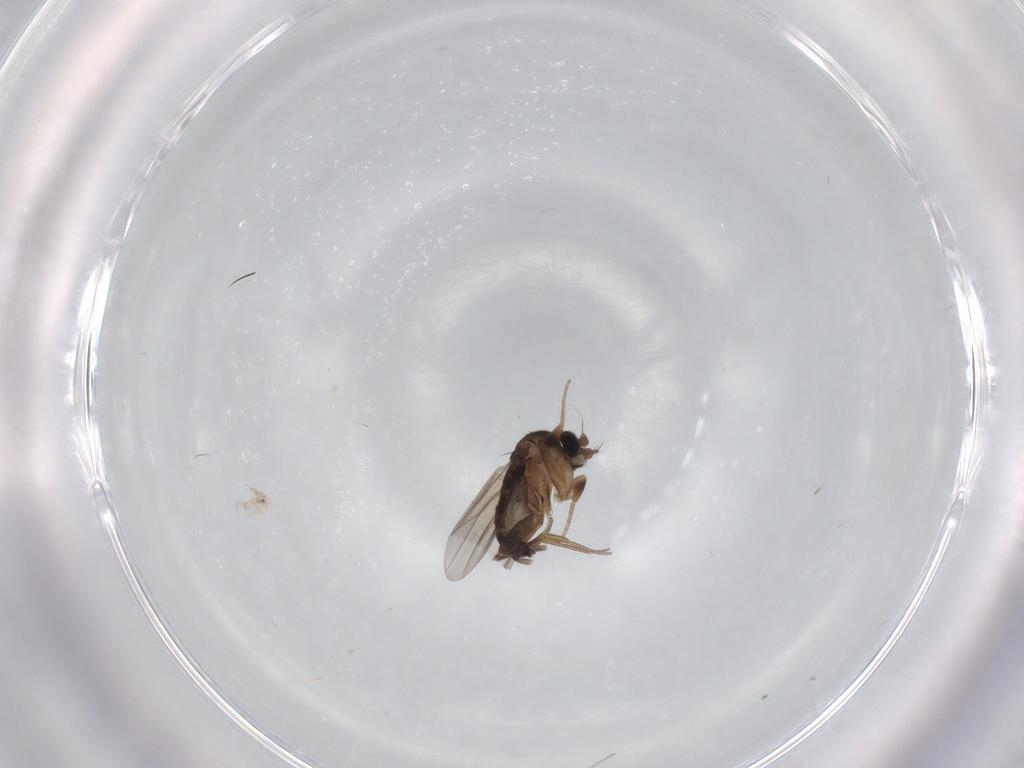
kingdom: Animalia
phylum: Arthropoda
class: Insecta
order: Diptera
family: Phoridae
